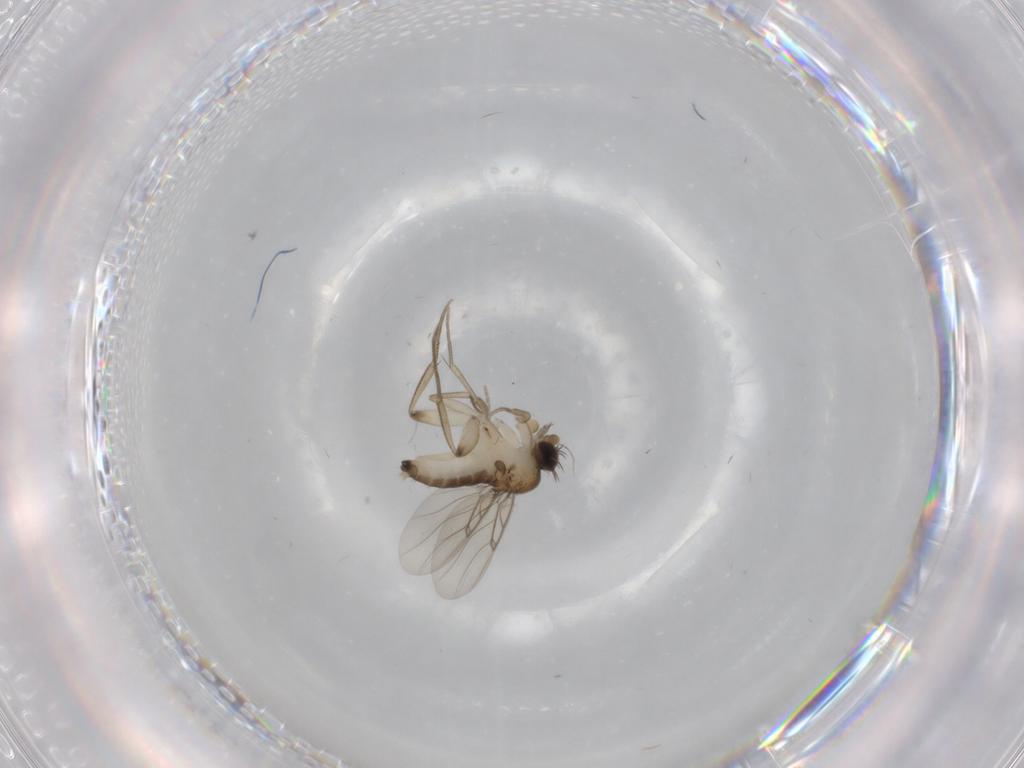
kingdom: Animalia
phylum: Arthropoda
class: Insecta
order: Diptera
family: Phoridae
